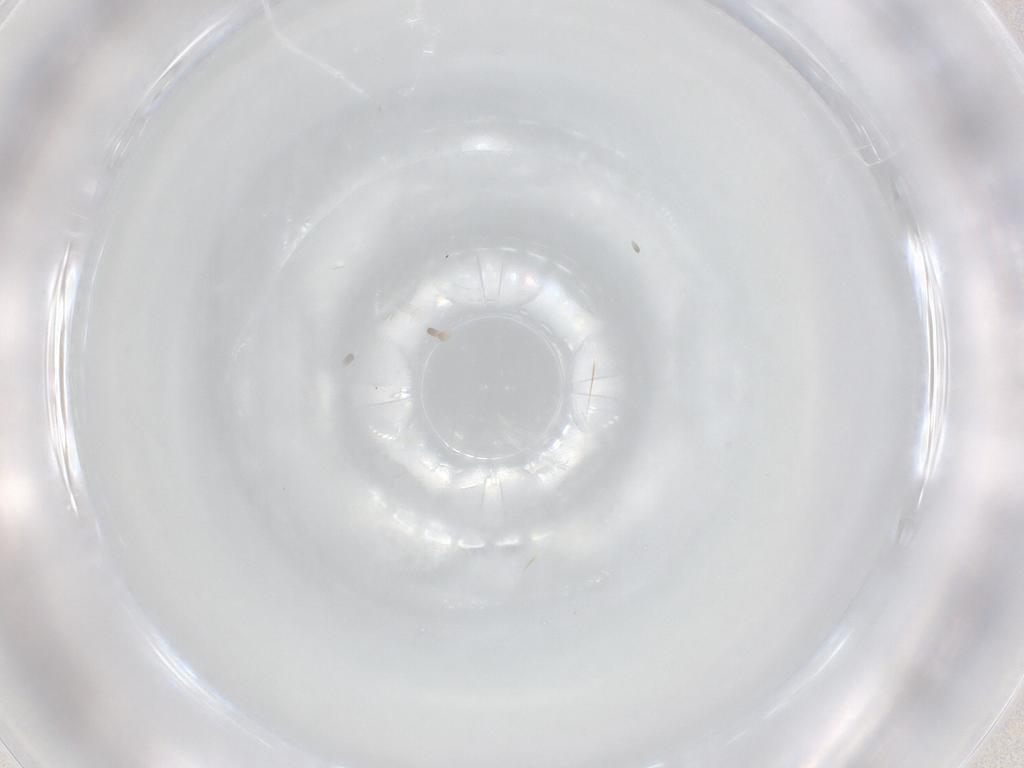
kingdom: Animalia
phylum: Arthropoda
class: Insecta
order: Diptera
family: Cecidomyiidae
